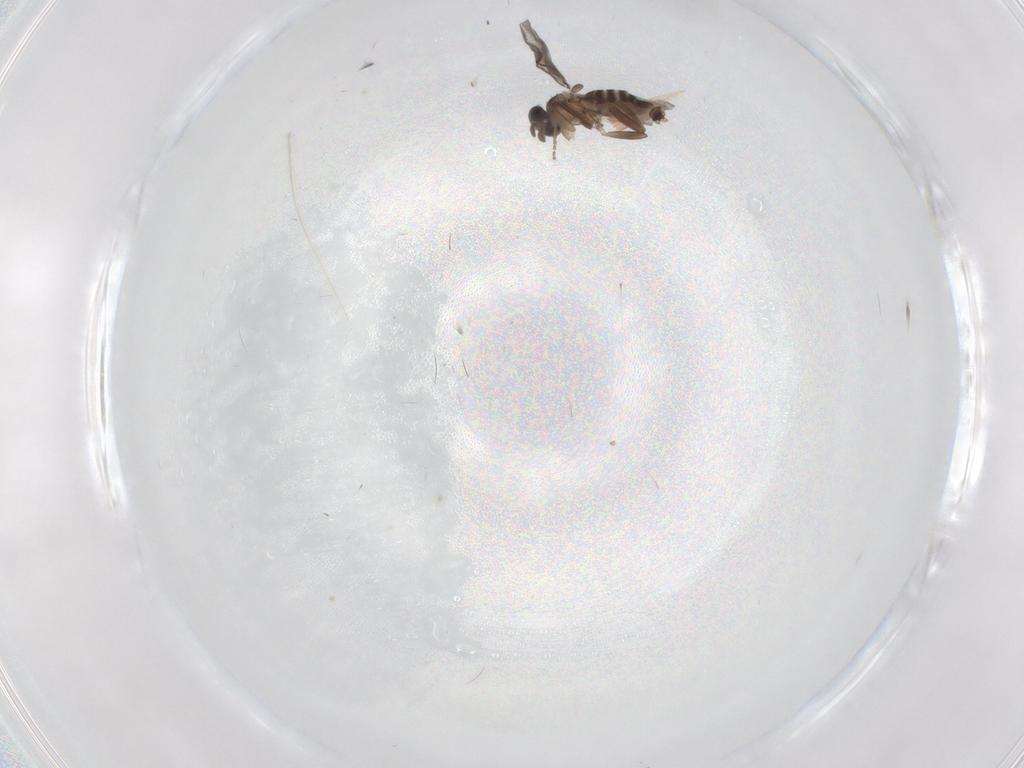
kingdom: Animalia
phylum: Arthropoda
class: Insecta
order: Diptera
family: Cecidomyiidae
